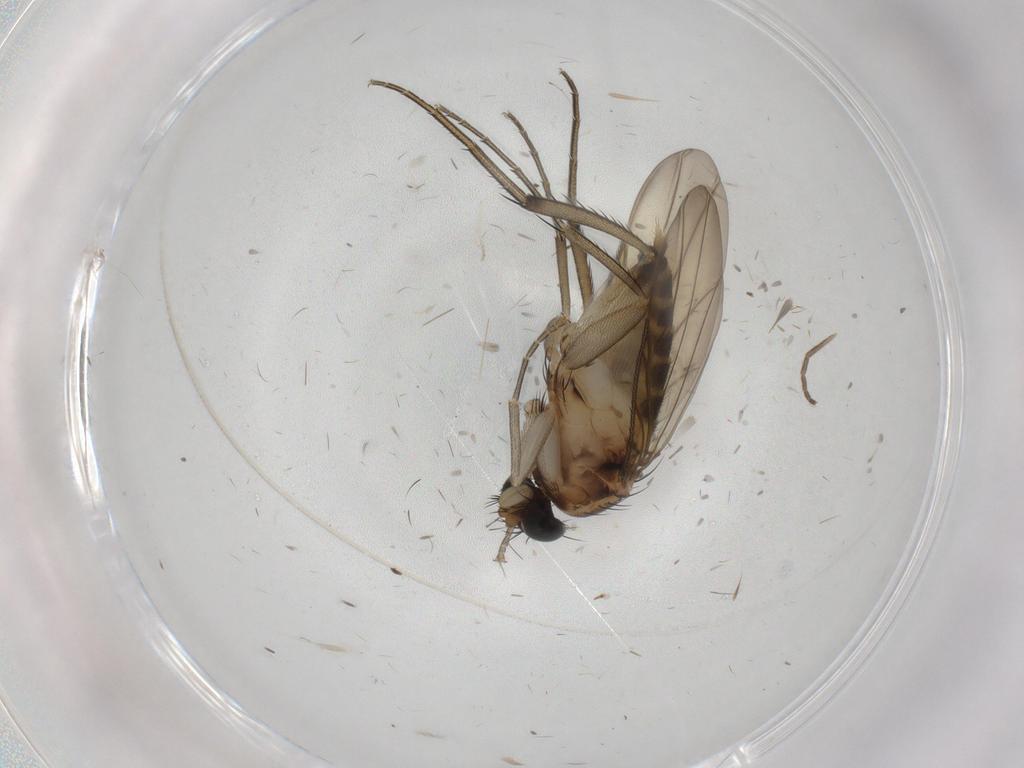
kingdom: Animalia
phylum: Arthropoda
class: Insecta
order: Diptera
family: Phoridae
